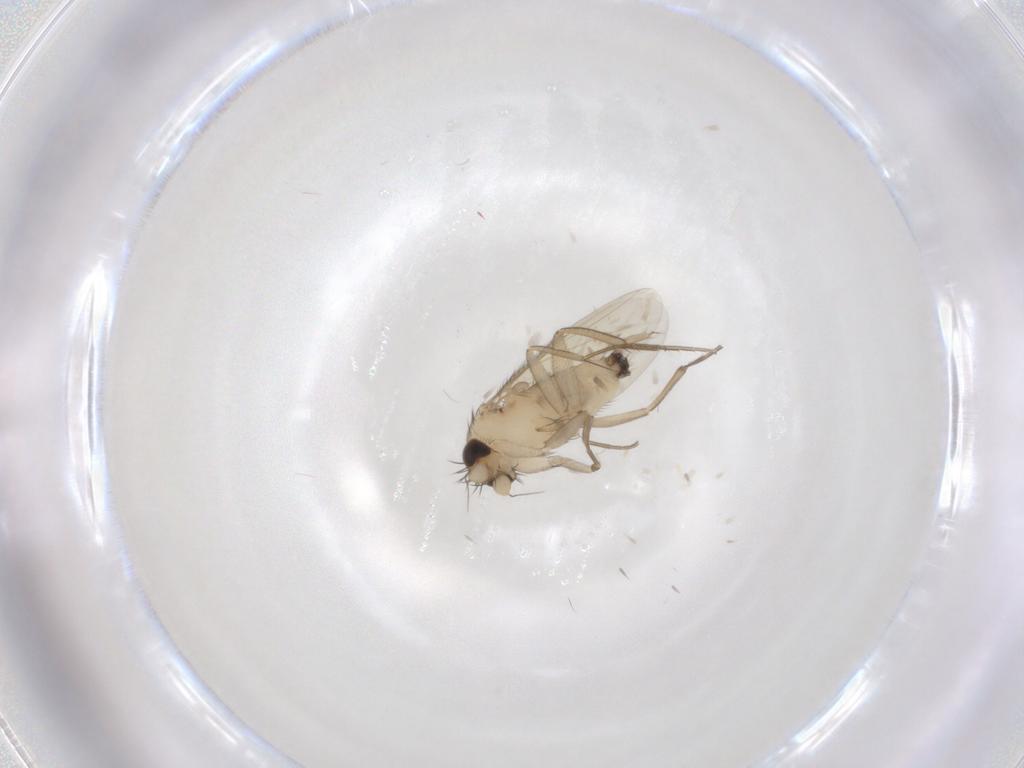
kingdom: Animalia
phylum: Arthropoda
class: Insecta
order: Diptera
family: Phoridae
